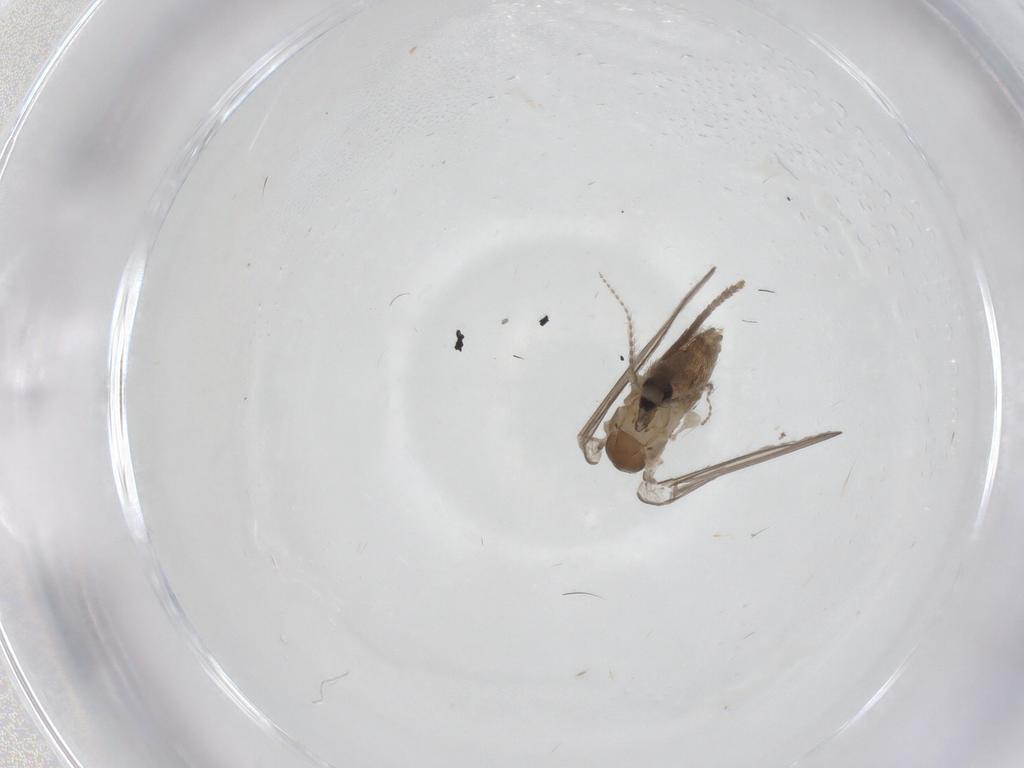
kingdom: Animalia
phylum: Arthropoda
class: Insecta
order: Diptera
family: Psychodidae
